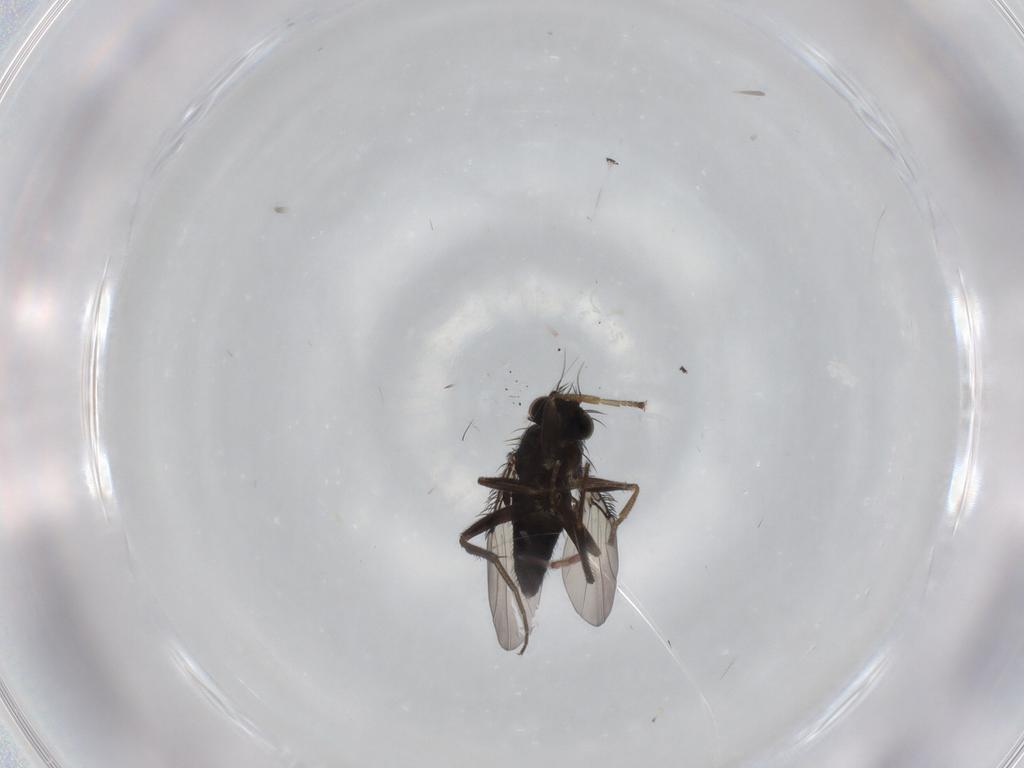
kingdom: Animalia
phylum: Arthropoda
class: Insecta
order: Diptera
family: Phoridae
